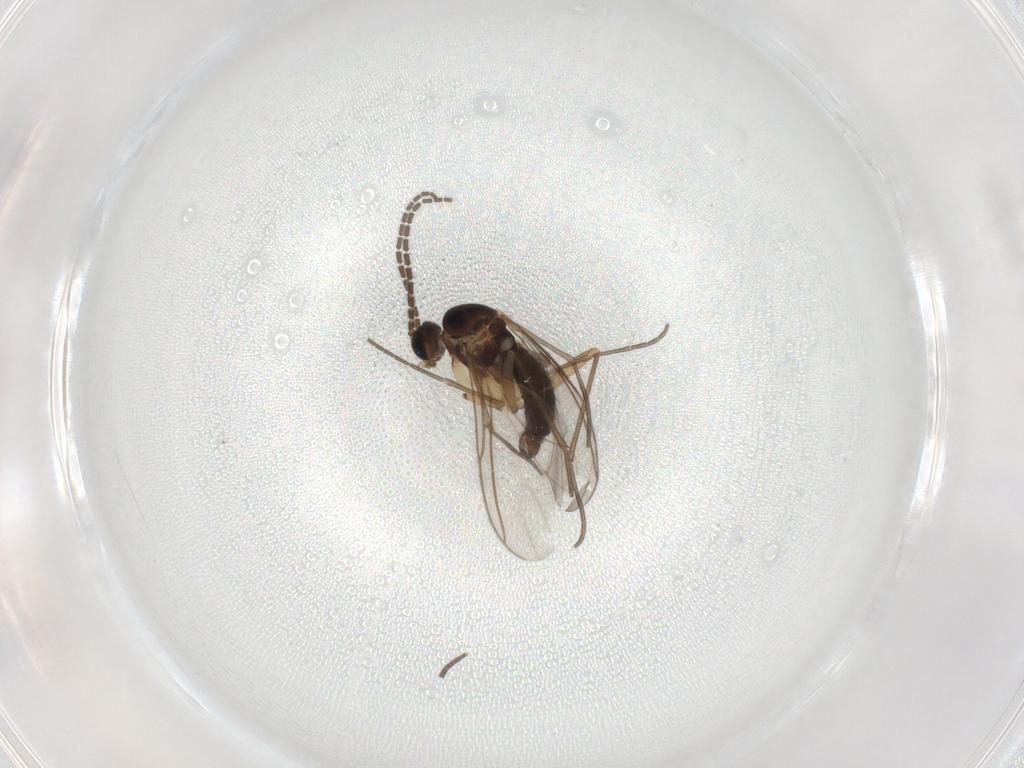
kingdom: Animalia
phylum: Arthropoda
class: Insecta
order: Diptera
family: Sciaridae
